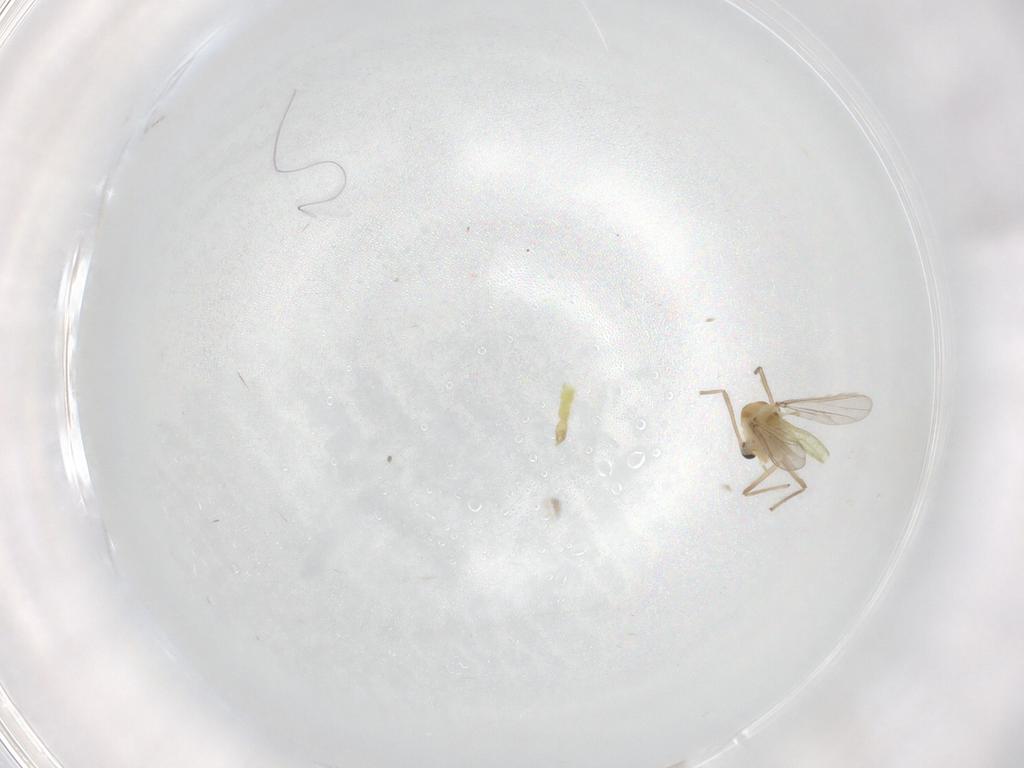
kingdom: Animalia
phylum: Arthropoda
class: Insecta
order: Diptera
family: Chironomidae
